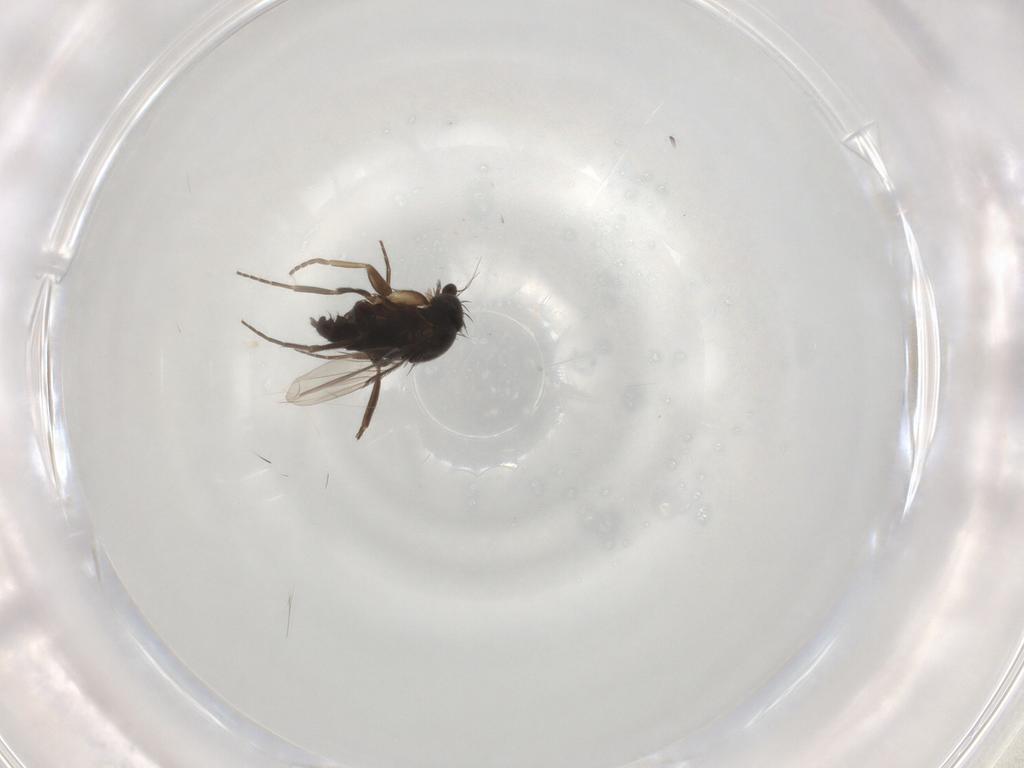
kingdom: Animalia
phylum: Arthropoda
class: Insecta
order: Diptera
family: Phoridae
